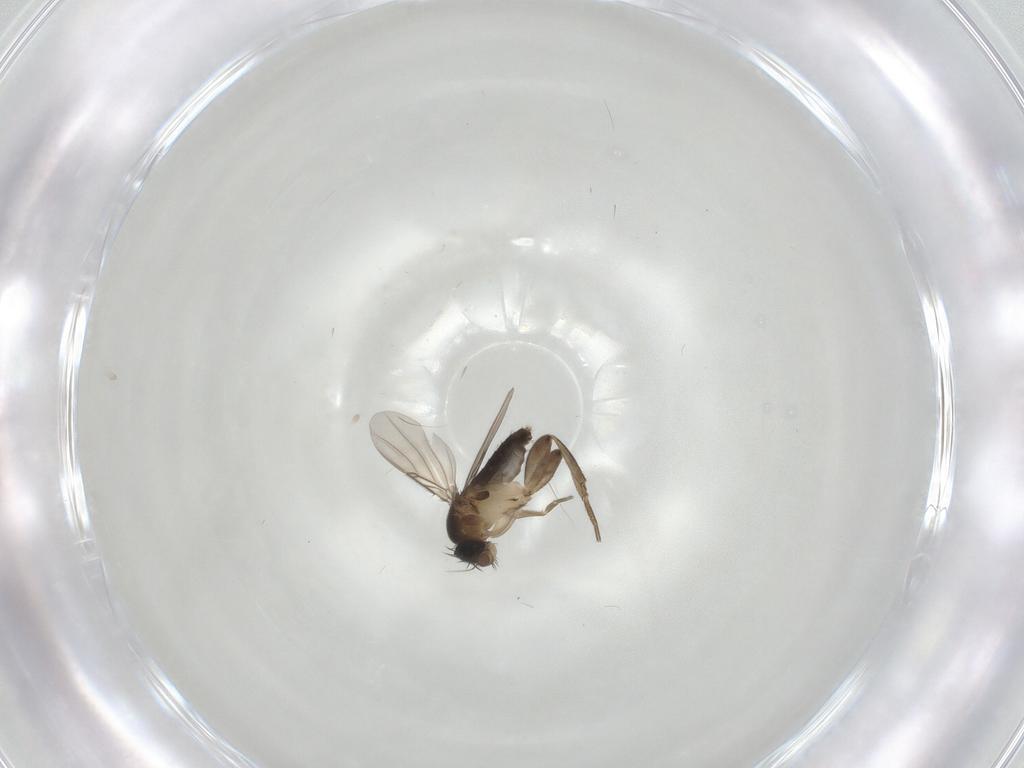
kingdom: Animalia
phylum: Arthropoda
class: Insecta
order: Diptera
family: Phoridae
